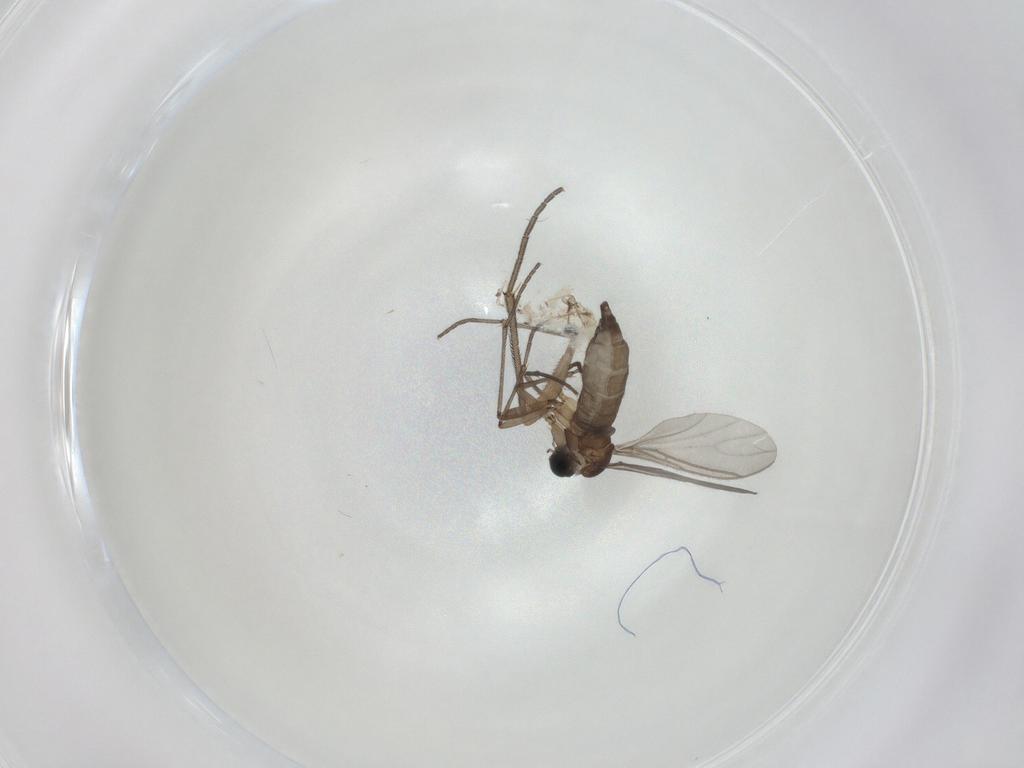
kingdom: Animalia
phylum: Arthropoda
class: Insecta
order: Diptera
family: Sciaridae
